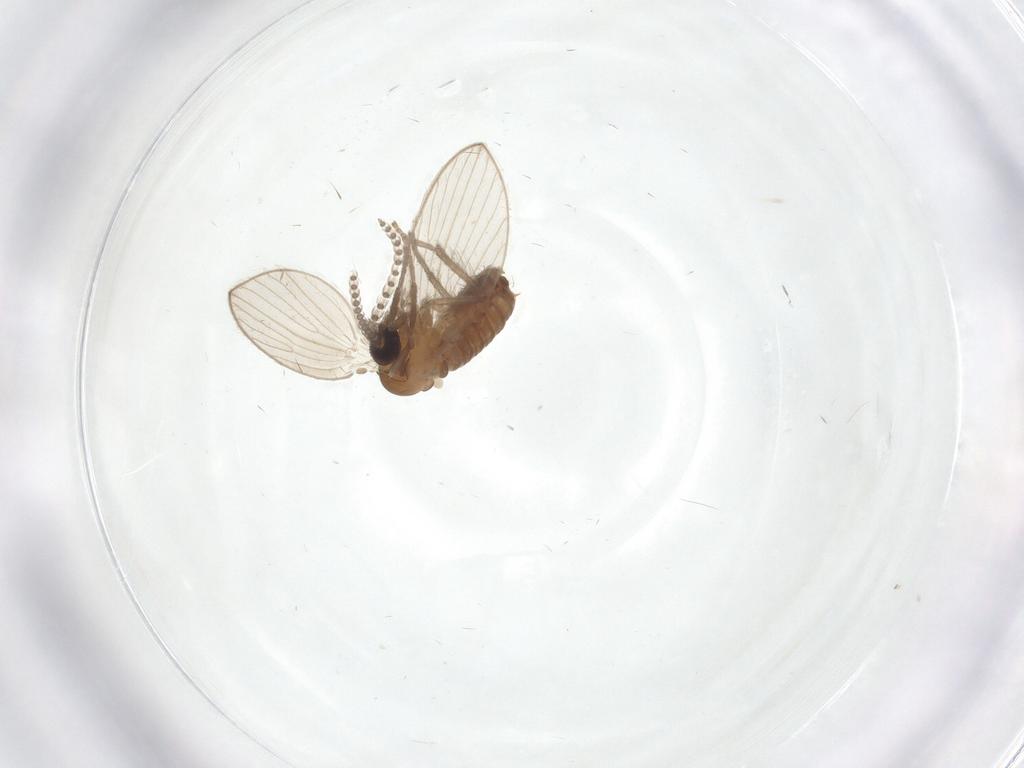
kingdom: Animalia
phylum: Arthropoda
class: Insecta
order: Diptera
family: Psychodidae
